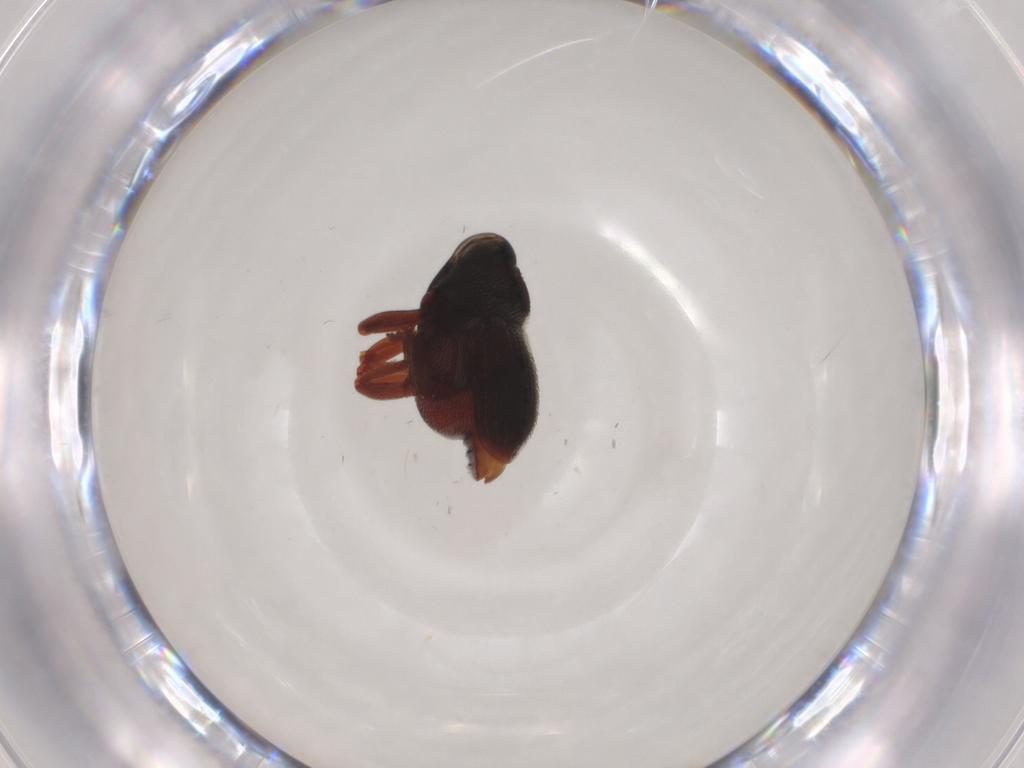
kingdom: Animalia
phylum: Arthropoda
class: Insecta
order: Coleoptera
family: Curculionidae
